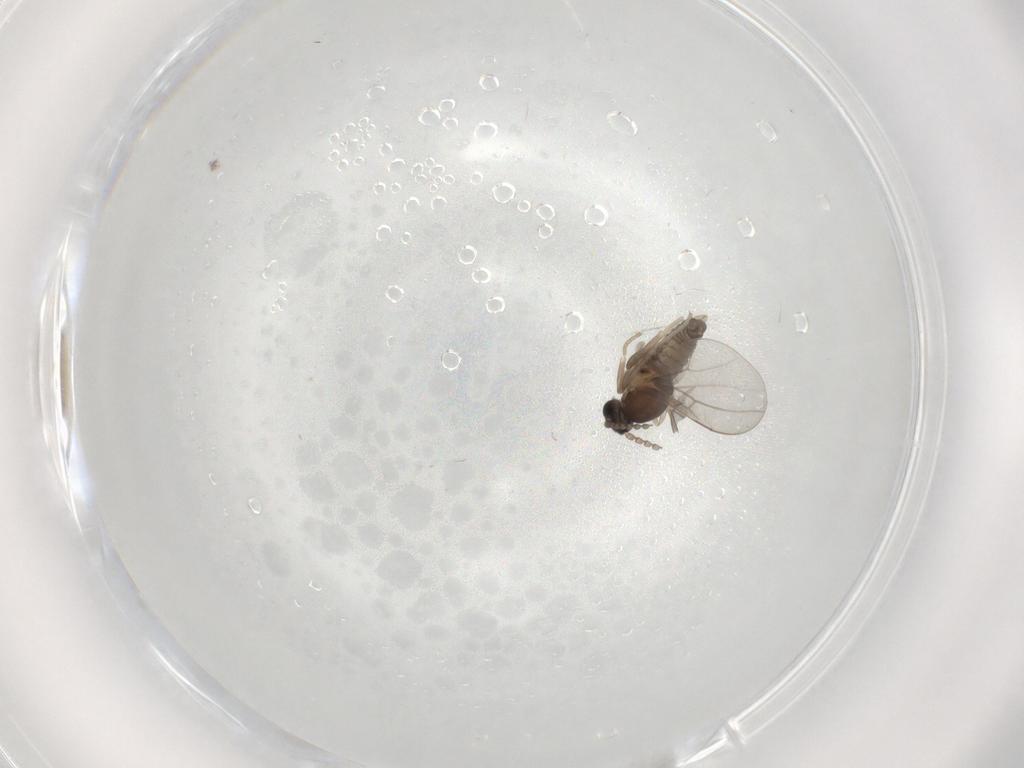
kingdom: Animalia
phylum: Arthropoda
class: Insecta
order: Diptera
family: Cecidomyiidae
